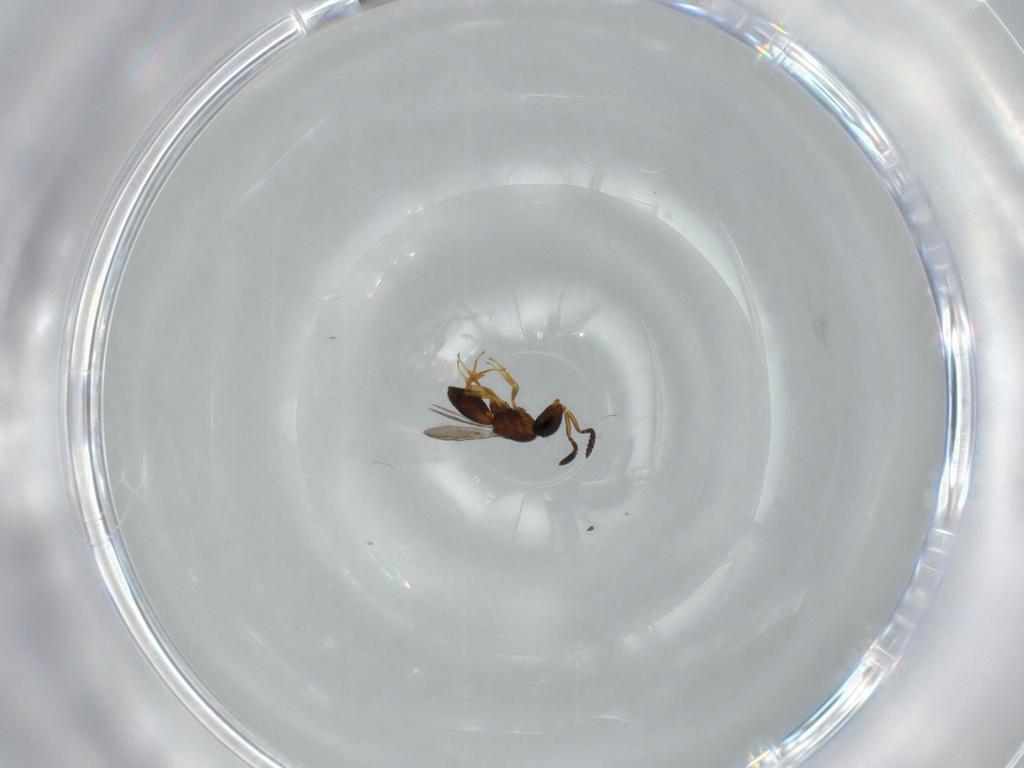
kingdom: Animalia
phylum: Arthropoda
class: Insecta
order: Hymenoptera
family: Scelionidae
